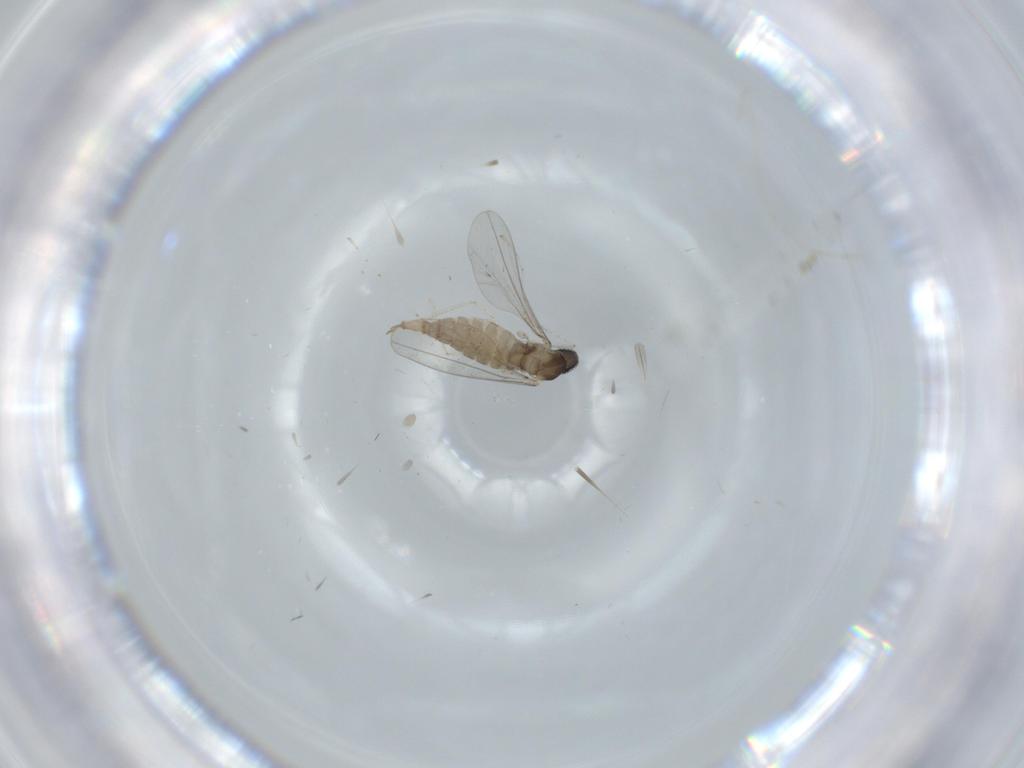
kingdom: Animalia
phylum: Arthropoda
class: Insecta
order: Diptera
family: Cecidomyiidae
